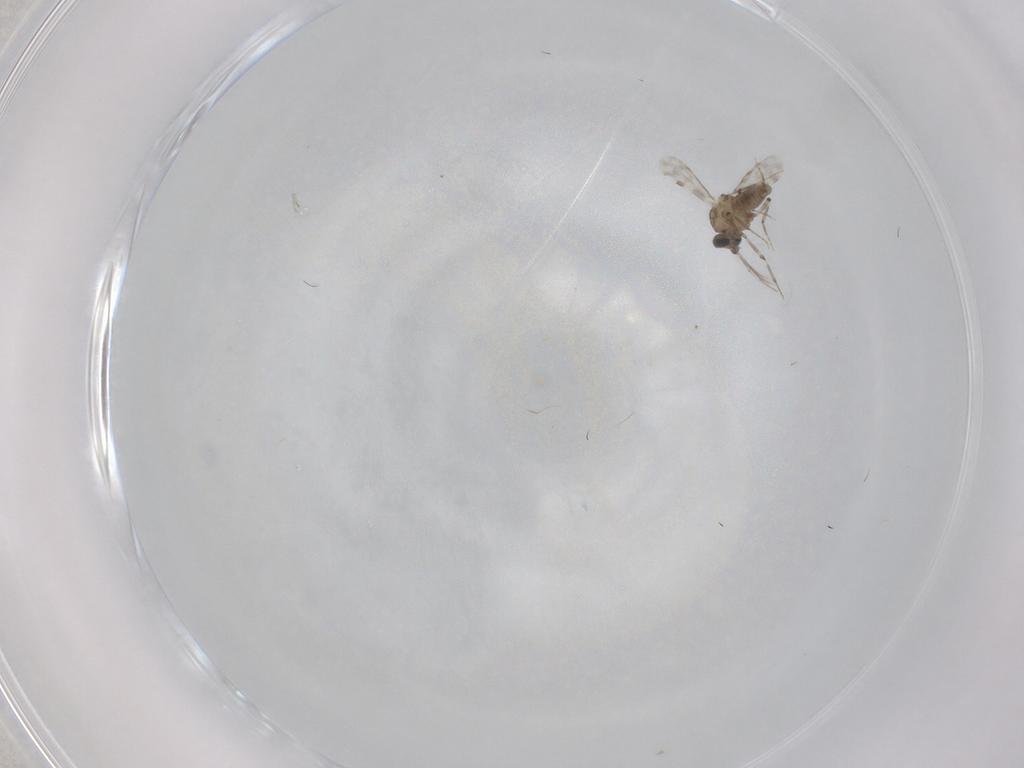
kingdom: Animalia
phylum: Arthropoda
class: Insecta
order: Diptera
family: Ceratopogonidae
